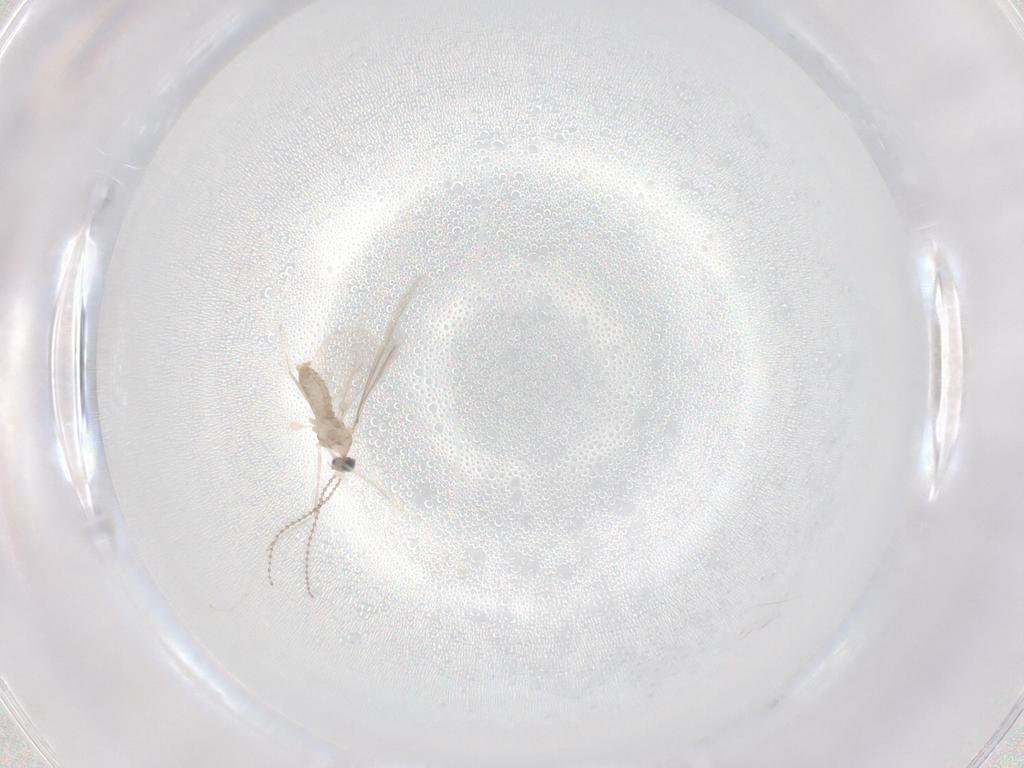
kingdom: Animalia
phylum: Arthropoda
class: Insecta
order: Diptera
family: Cecidomyiidae
